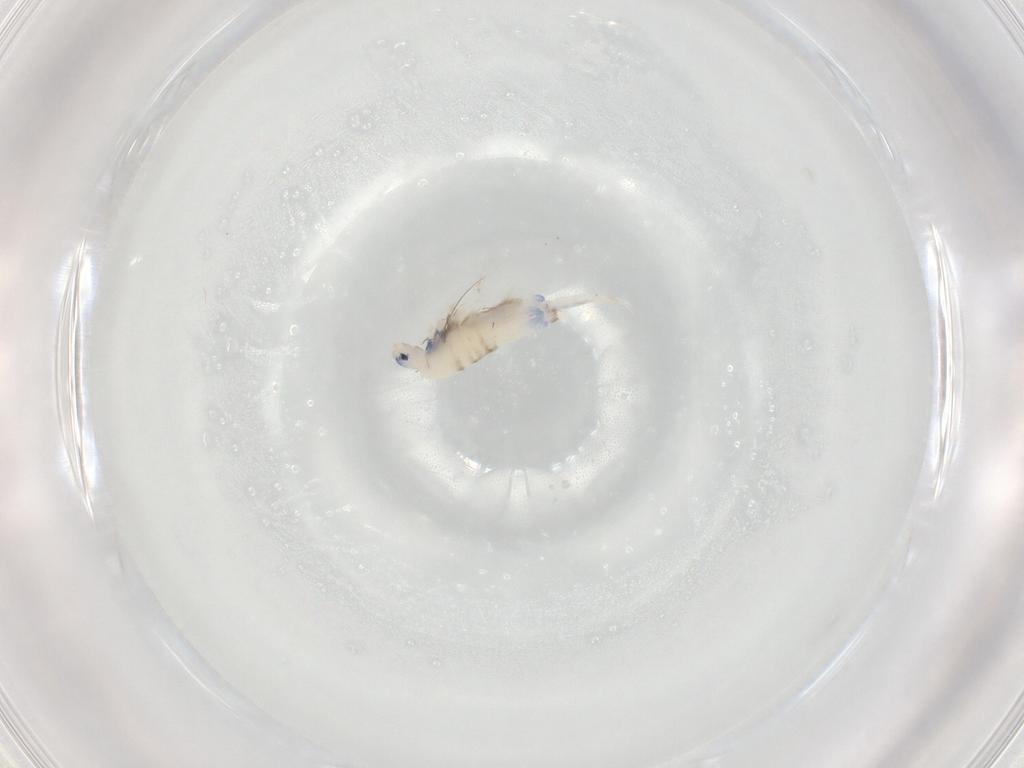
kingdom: Animalia
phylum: Arthropoda
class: Collembola
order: Entomobryomorpha
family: Entomobryidae
